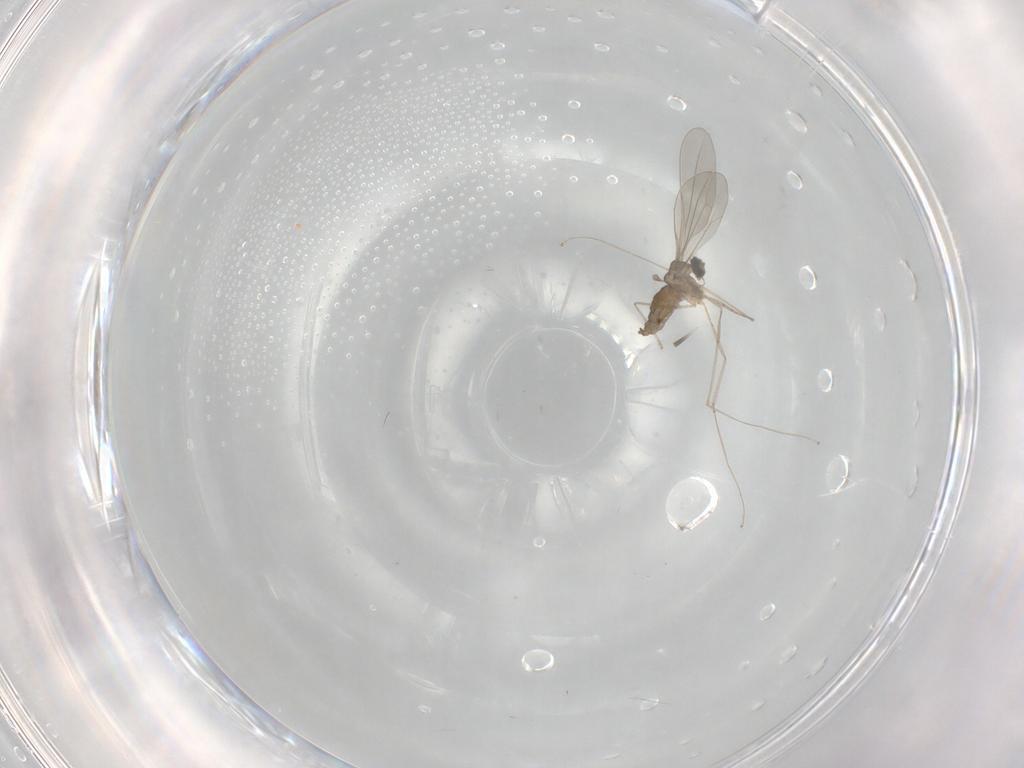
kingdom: Animalia
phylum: Arthropoda
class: Insecta
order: Diptera
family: Cecidomyiidae
